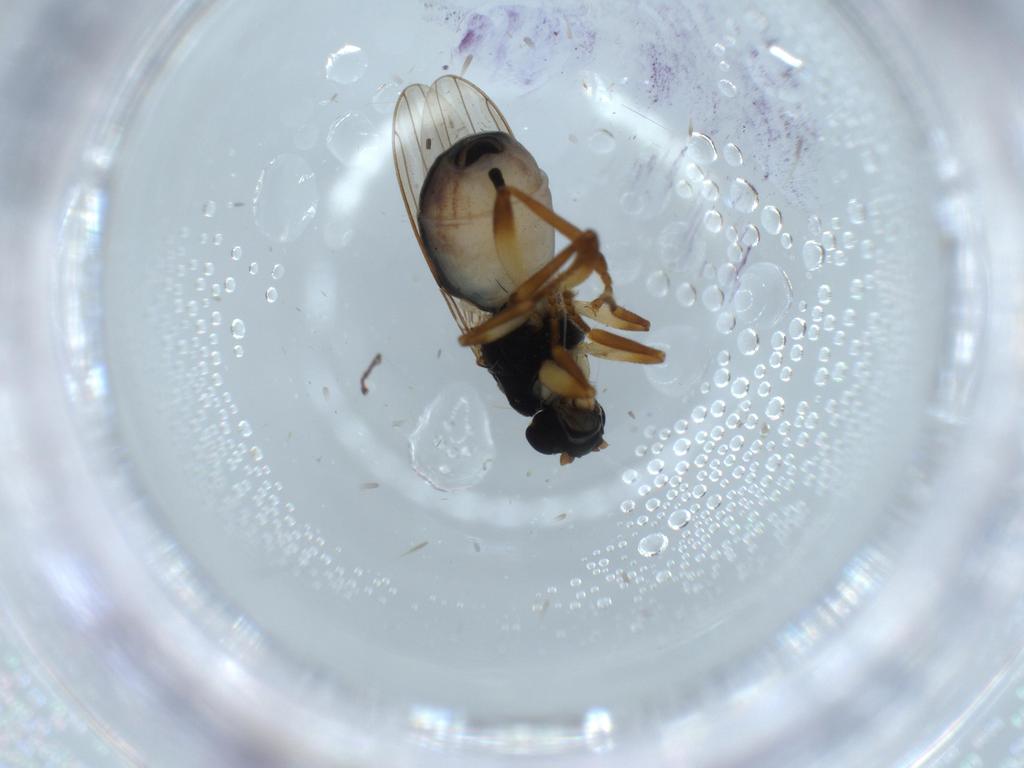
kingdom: Animalia
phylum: Arthropoda
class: Insecta
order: Diptera
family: Sphaeroceridae
